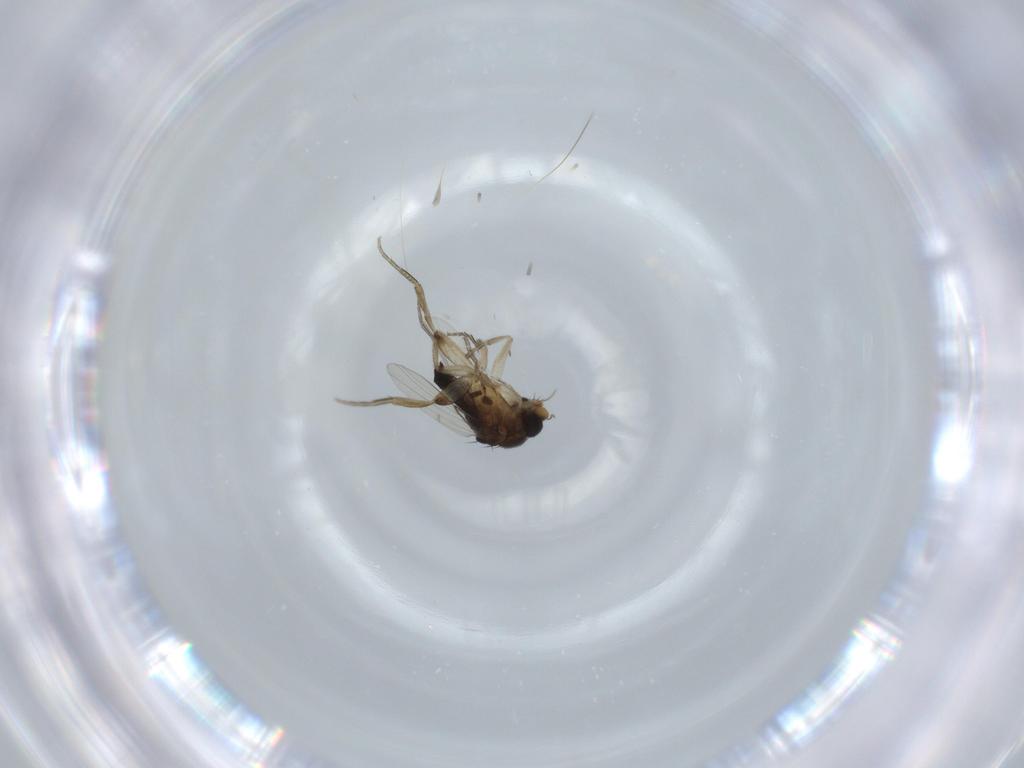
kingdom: Animalia
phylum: Arthropoda
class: Insecta
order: Diptera
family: Phoridae
